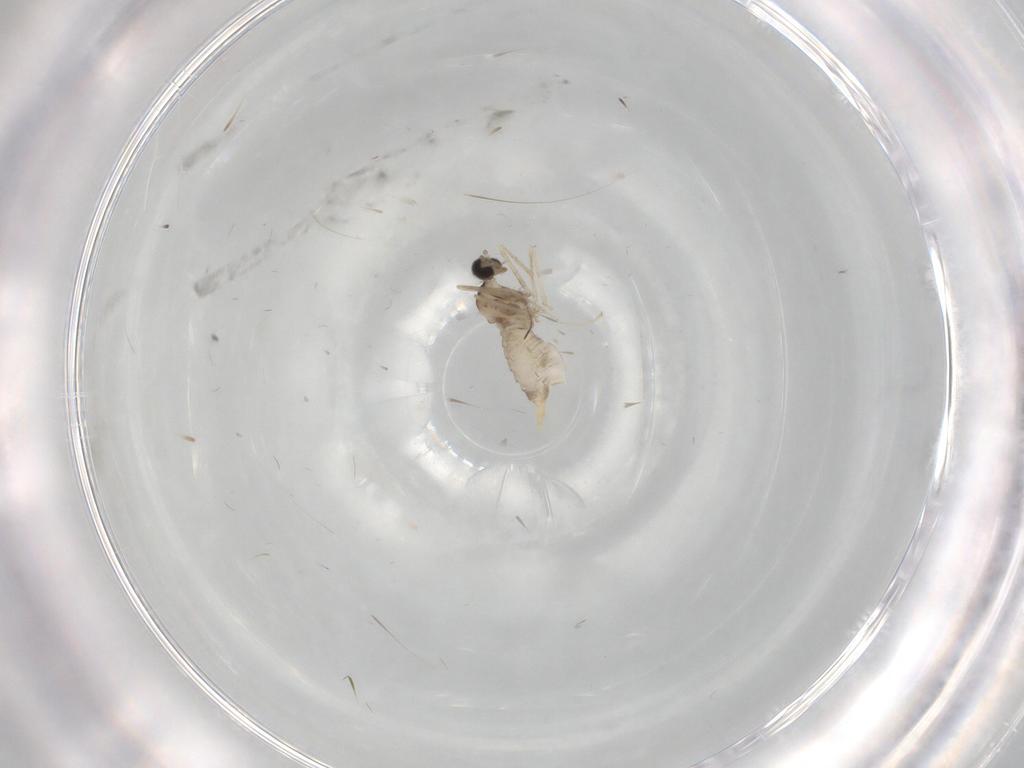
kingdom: Animalia
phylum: Arthropoda
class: Insecta
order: Diptera
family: Cecidomyiidae
